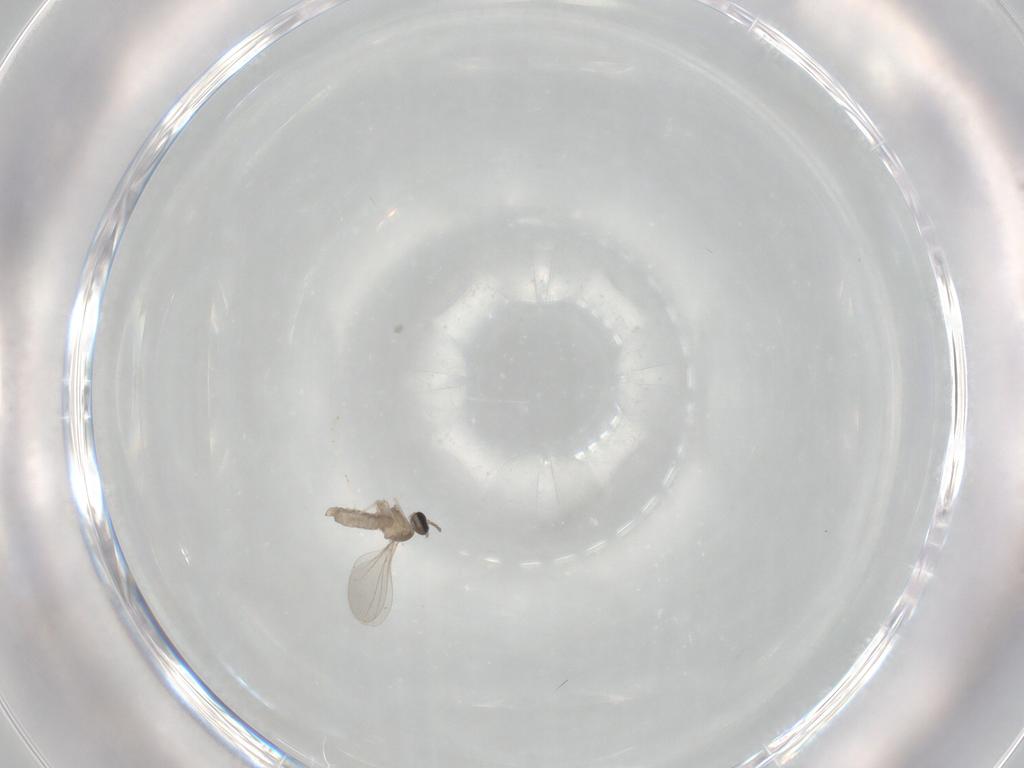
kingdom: Animalia
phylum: Arthropoda
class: Insecta
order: Diptera
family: Cecidomyiidae
